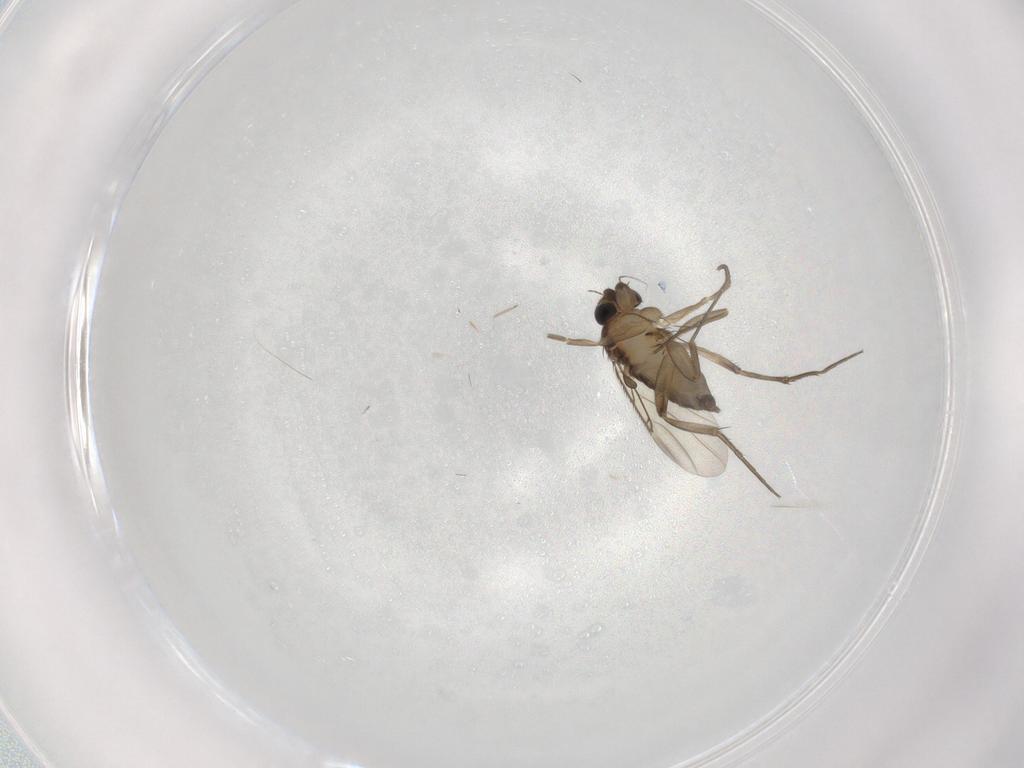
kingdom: Animalia
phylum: Arthropoda
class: Insecta
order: Diptera
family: Phoridae
